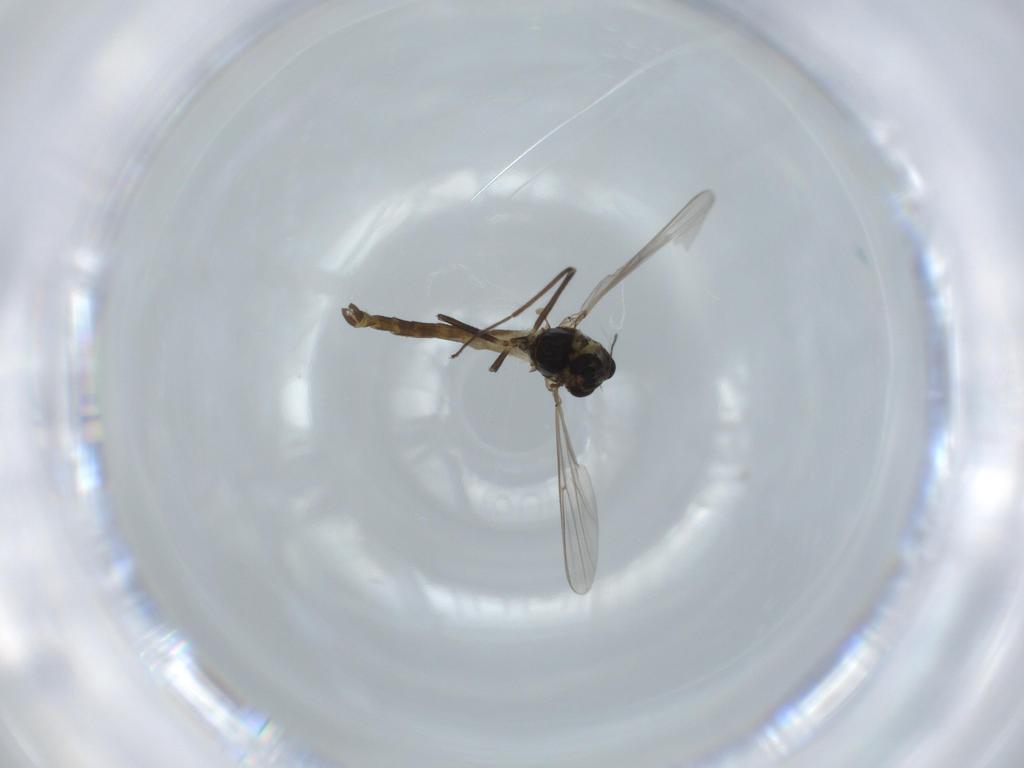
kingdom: Animalia
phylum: Arthropoda
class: Insecta
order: Diptera
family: Chironomidae
